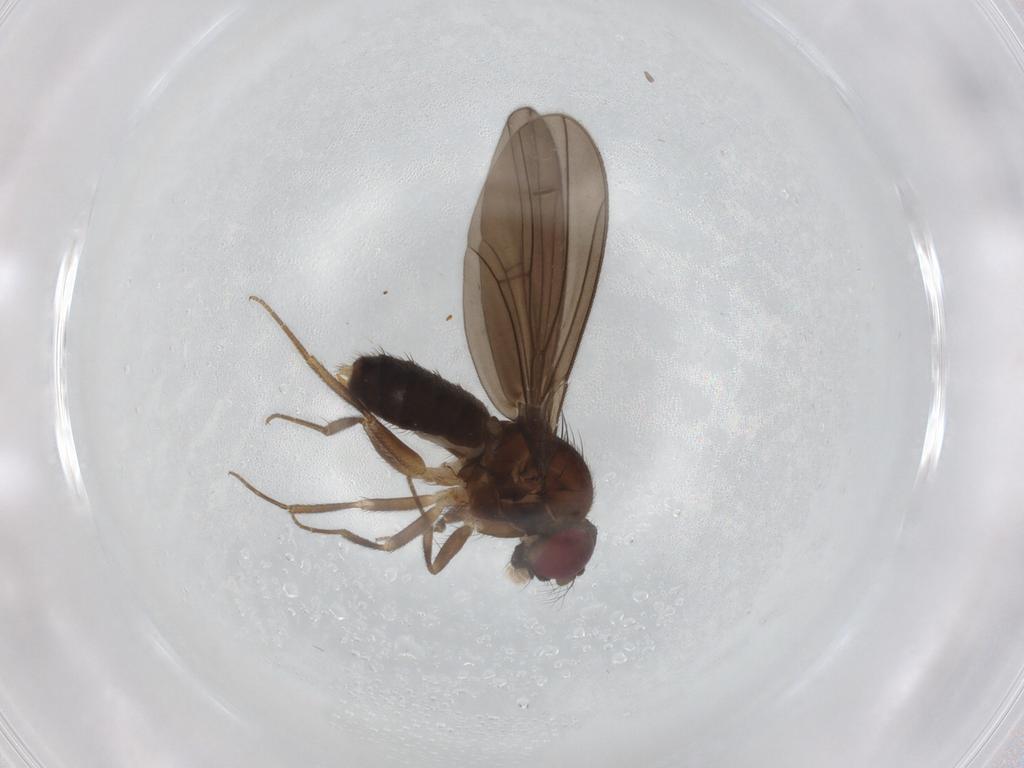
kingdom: Animalia
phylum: Arthropoda
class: Insecta
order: Diptera
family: Drosophilidae
